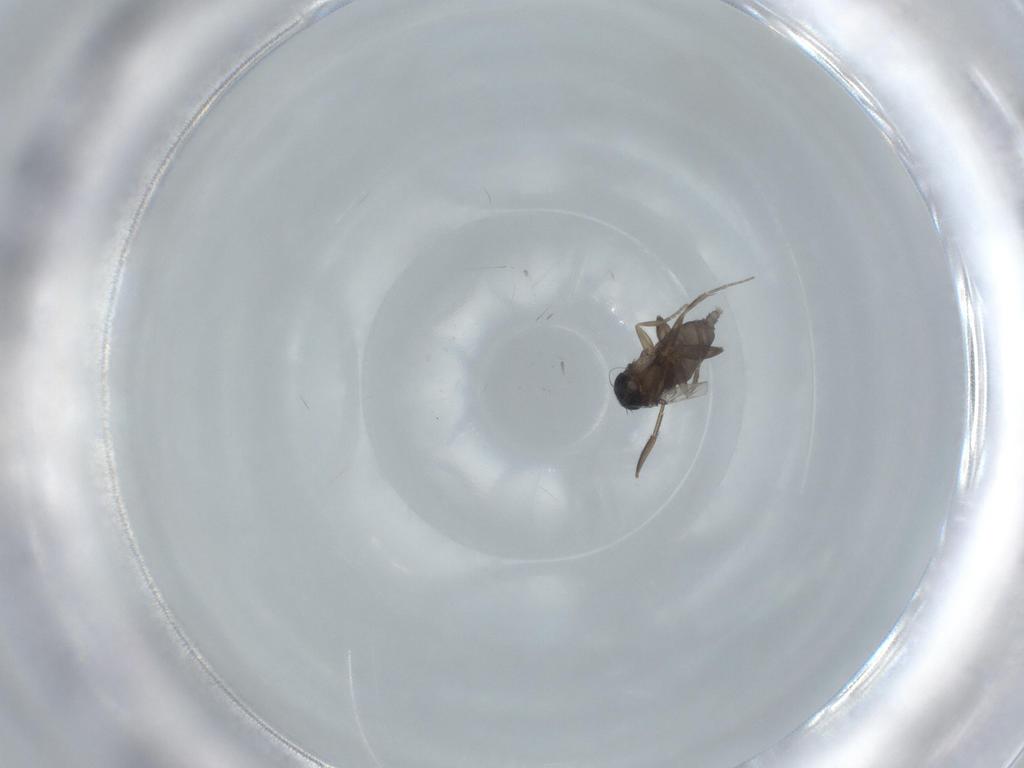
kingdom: Animalia
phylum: Arthropoda
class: Insecta
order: Diptera
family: Phoridae
